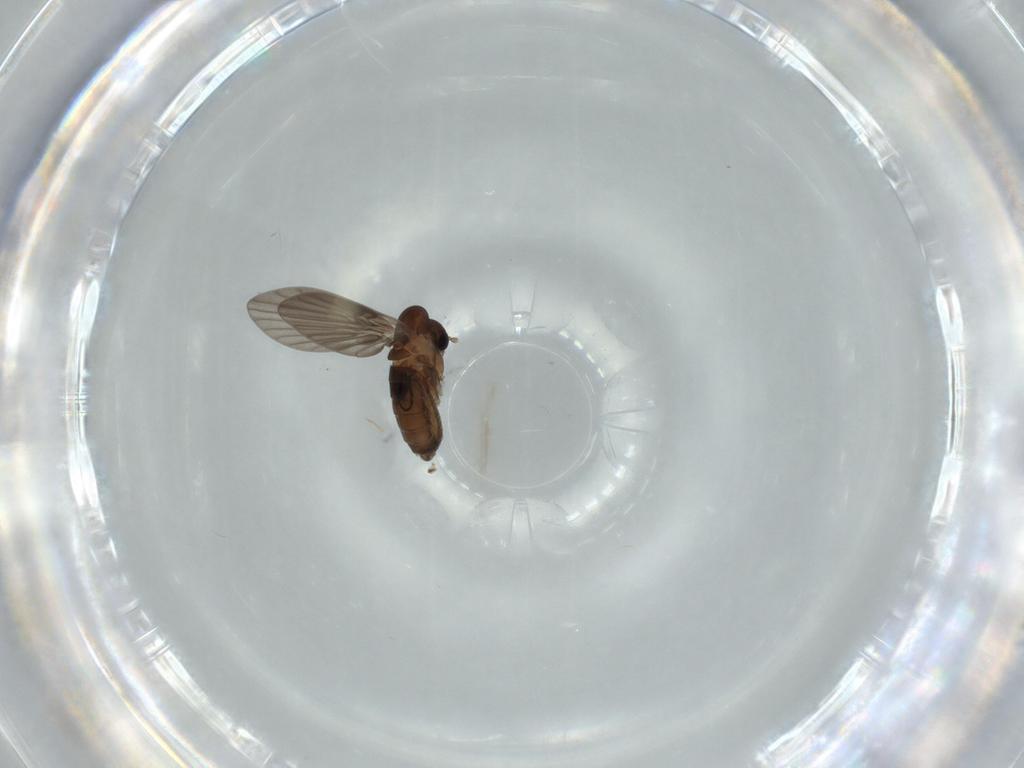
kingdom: Animalia
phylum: Arthropoda
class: Insecta
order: Diptera
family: Psychodidae
